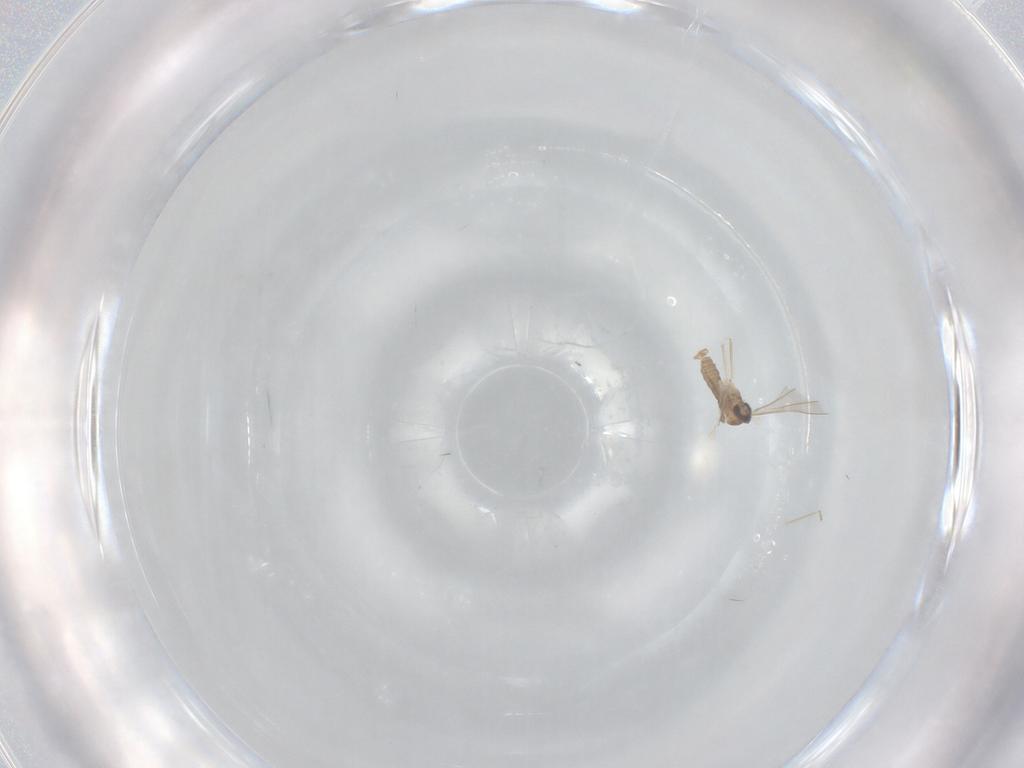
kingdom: Animalia
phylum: Arthropoda
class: Insecta
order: Diptera
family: Cecidomyiidae
